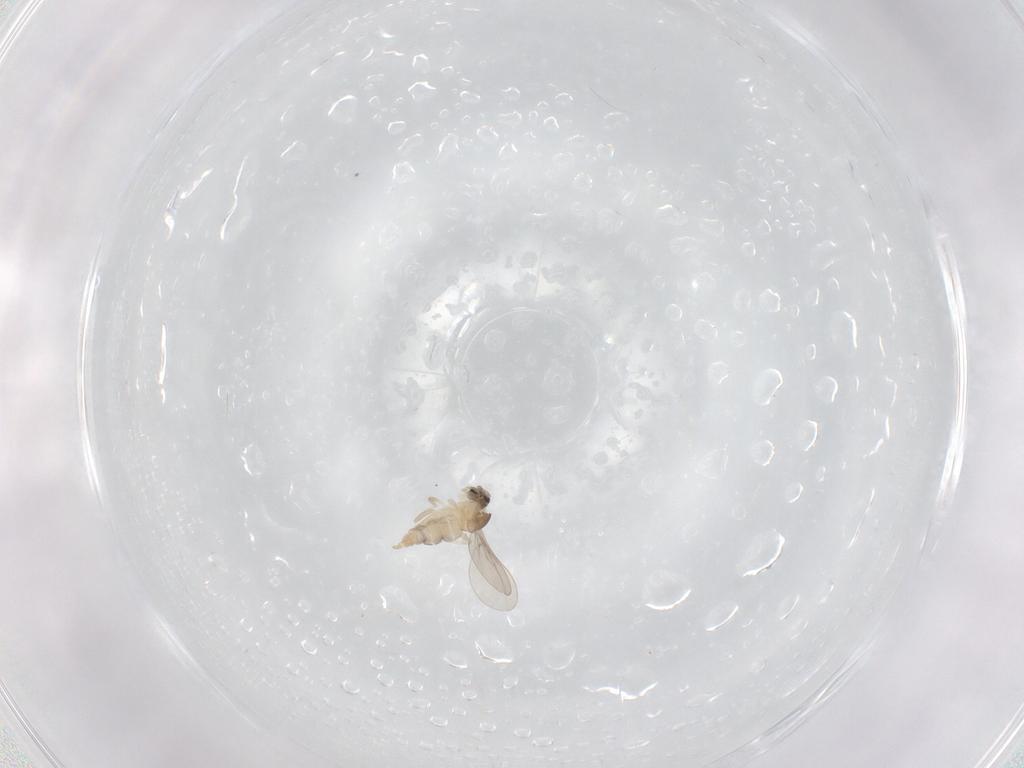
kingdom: Animalia
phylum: Arthropoda
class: Insecta
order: Diptera
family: Cecidomyiidae
